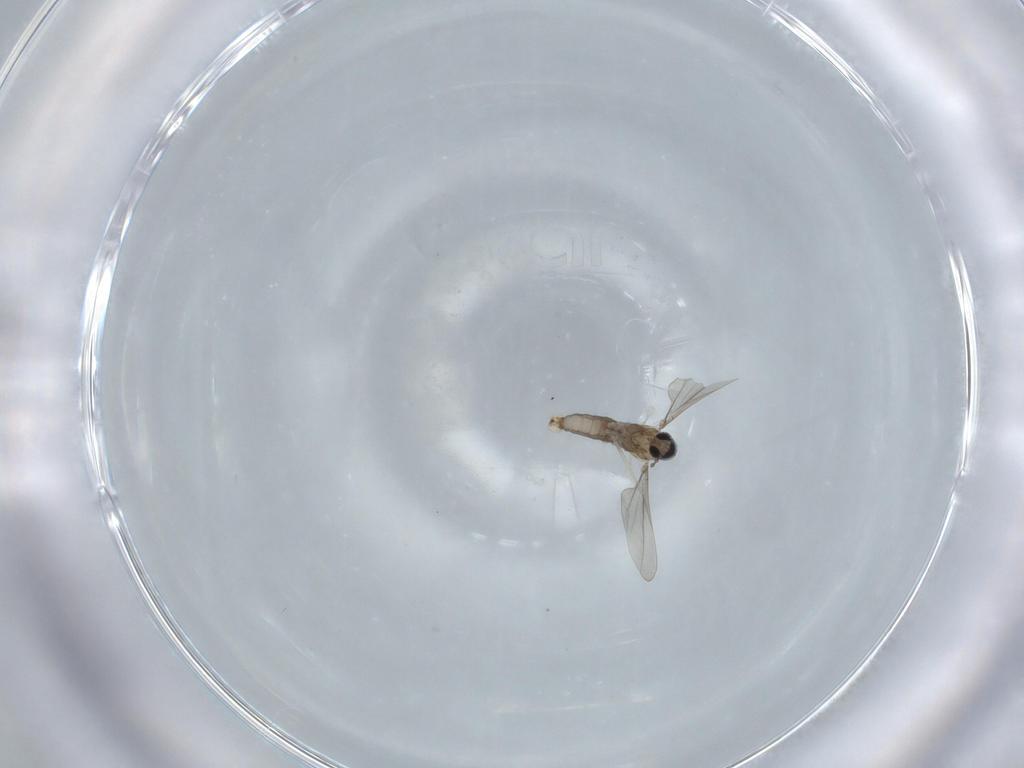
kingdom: Animalia
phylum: Arthropoda
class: Insecta
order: Diptera
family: Cecidomyiidae
